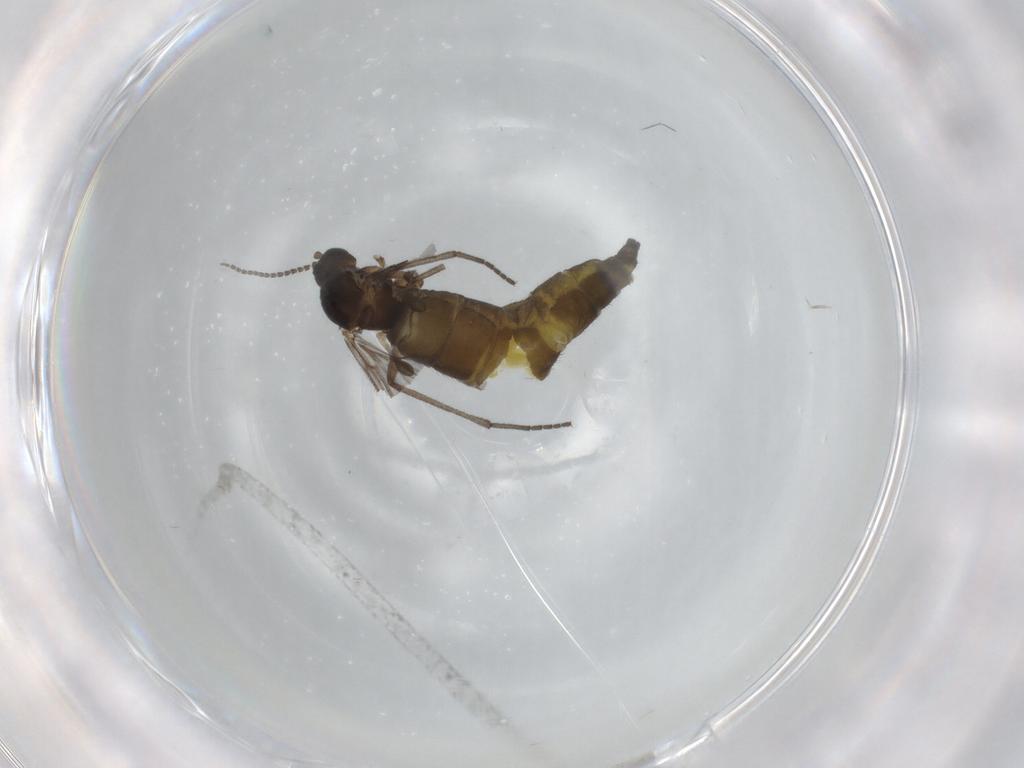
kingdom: Animalia
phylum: Arthropoda
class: Insecta
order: Diptera
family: Sciaridae
